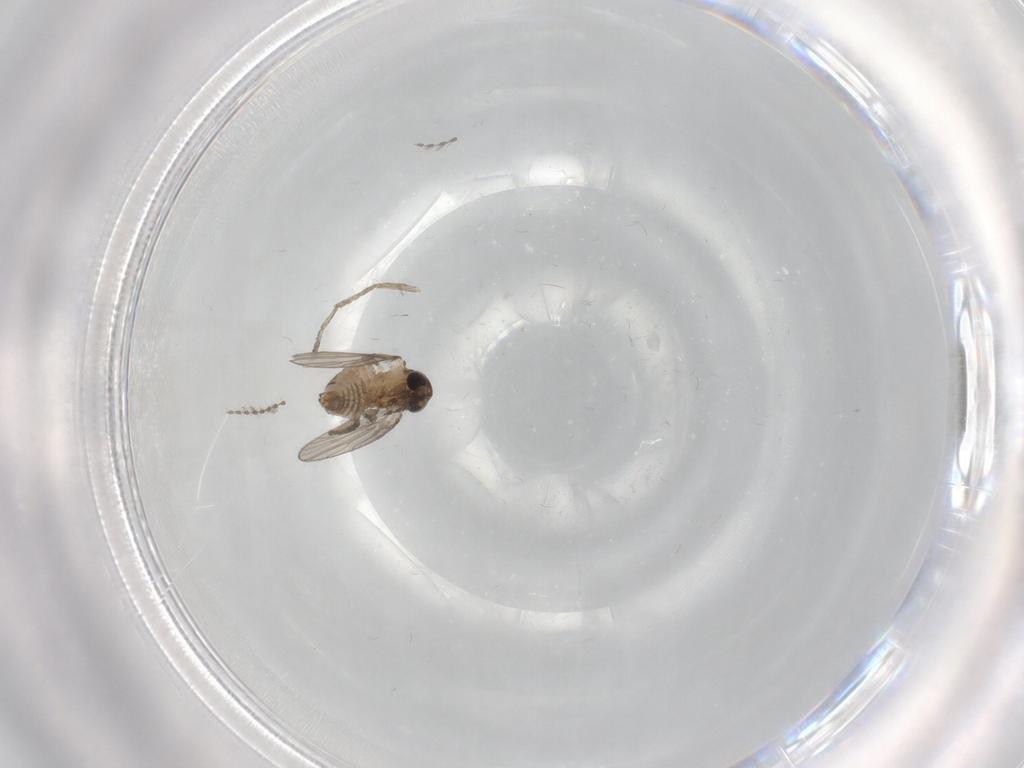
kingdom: Animalia
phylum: Arthropoda
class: Insecta
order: Diptera
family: Psychodidae
